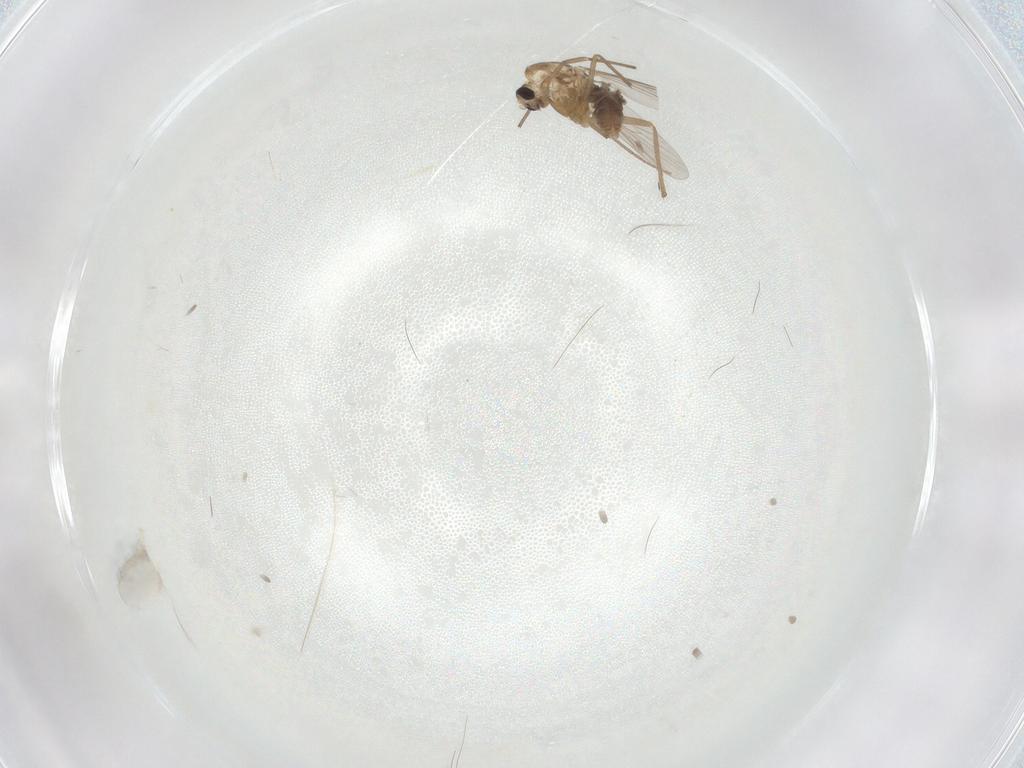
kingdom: Animalia
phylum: Arthropoda
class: Insecta
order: Diptera
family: Chironomidae
